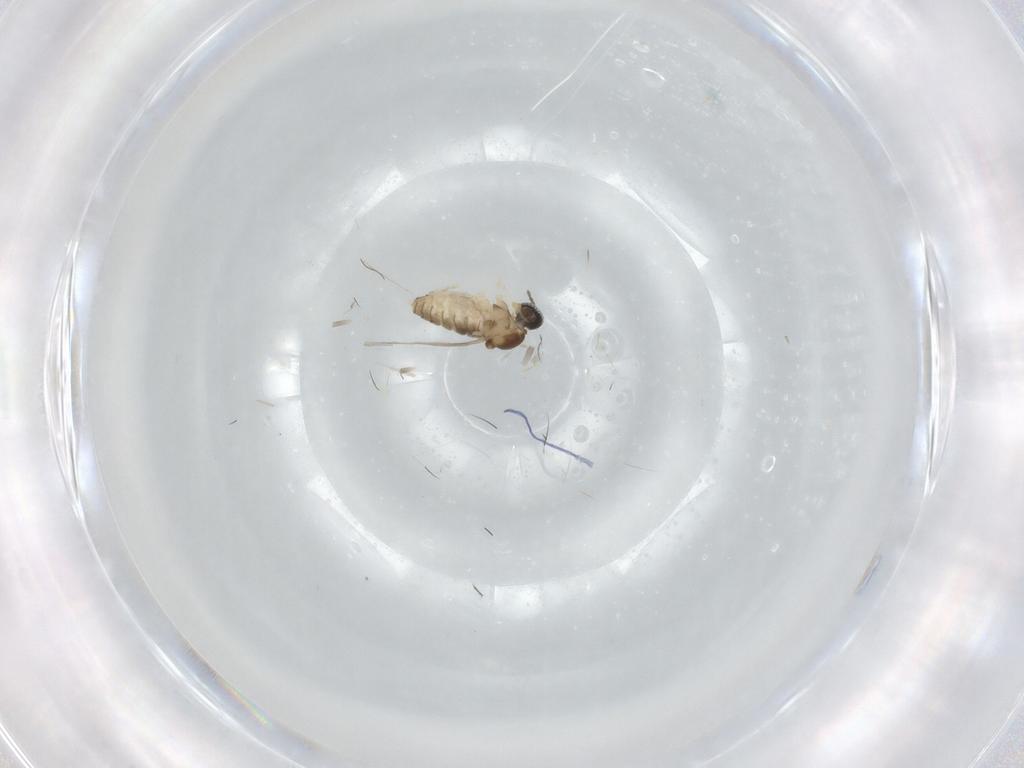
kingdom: Animalia
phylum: Arthropoda
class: Insecta
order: Diptera
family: Cecidomyiidae
